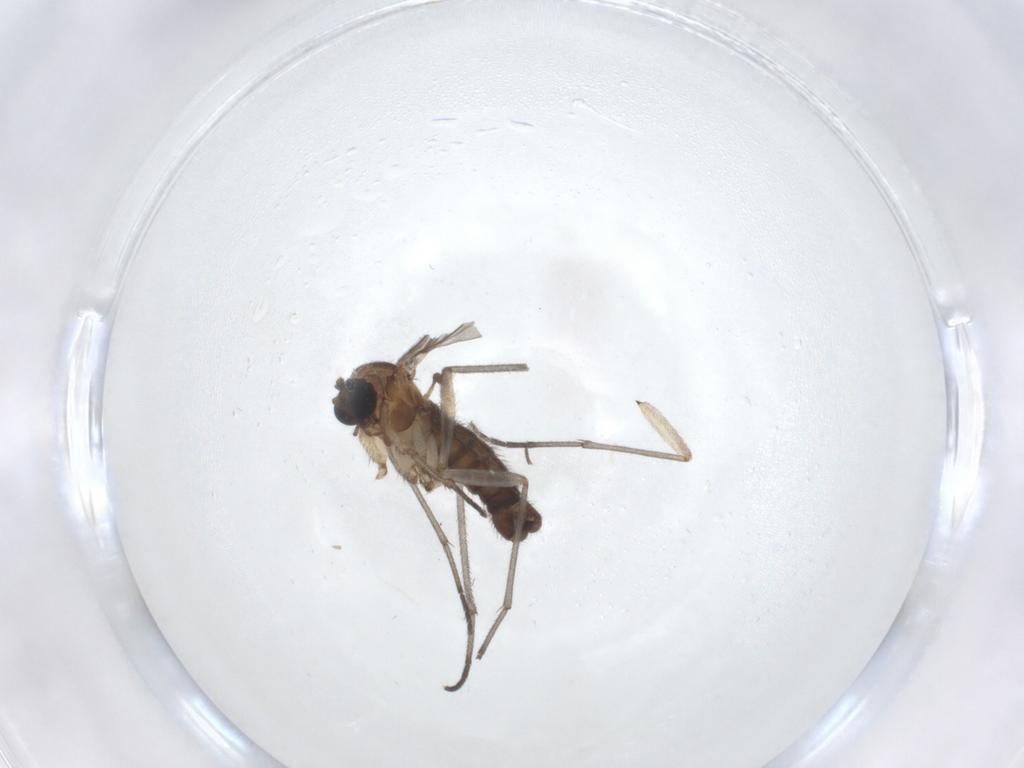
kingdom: Animalia
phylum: Arthropoda
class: Insecta
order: Diptera
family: Sciaridae
